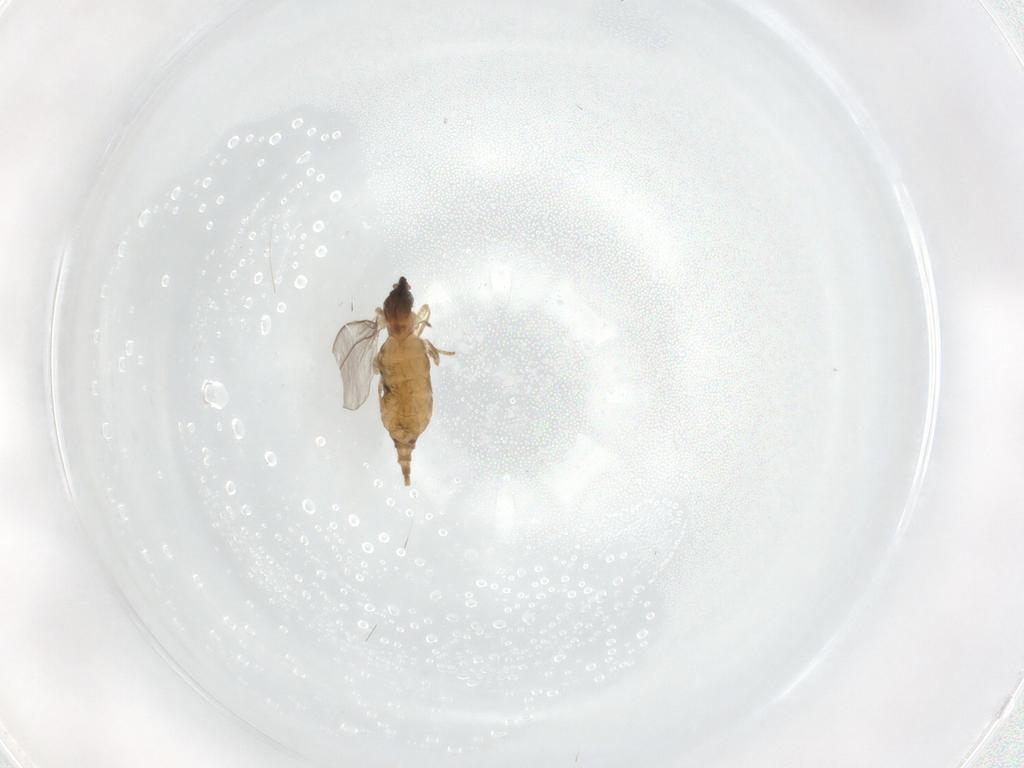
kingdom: Animalia
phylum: Arthropoda
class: Insecta
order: Diptera
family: Cecidomyiidae
